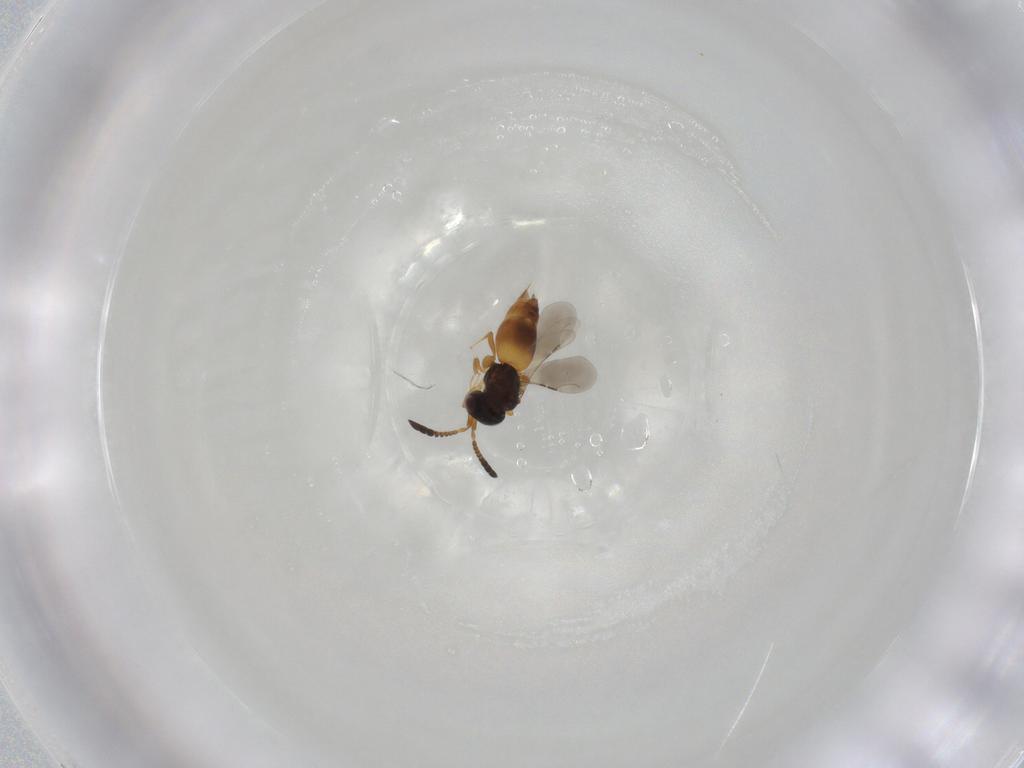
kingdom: Animalia
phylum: Arthropoda
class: Insecta
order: Hymenoptera
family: Ceraphronidae
